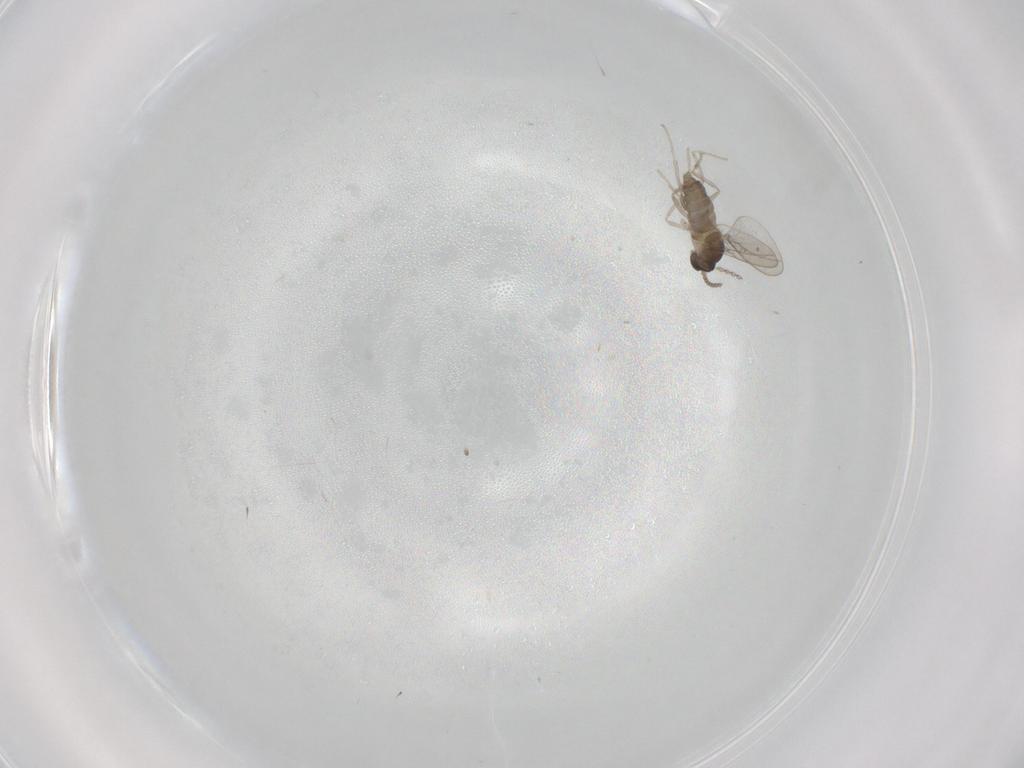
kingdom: Animalia
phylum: Arthropoda
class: Insecta
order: Diptera
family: Cecidomyiidae
